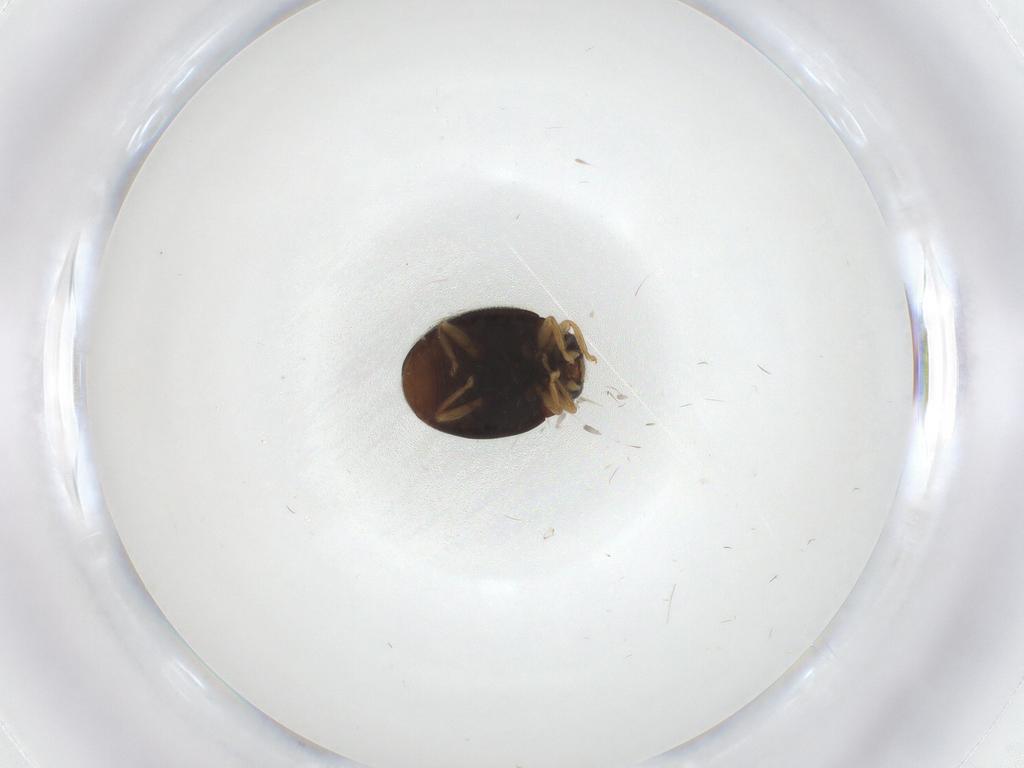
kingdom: Animalia
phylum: Arthropoda
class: Insecta
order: Coleoptera
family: Coccinellidae
